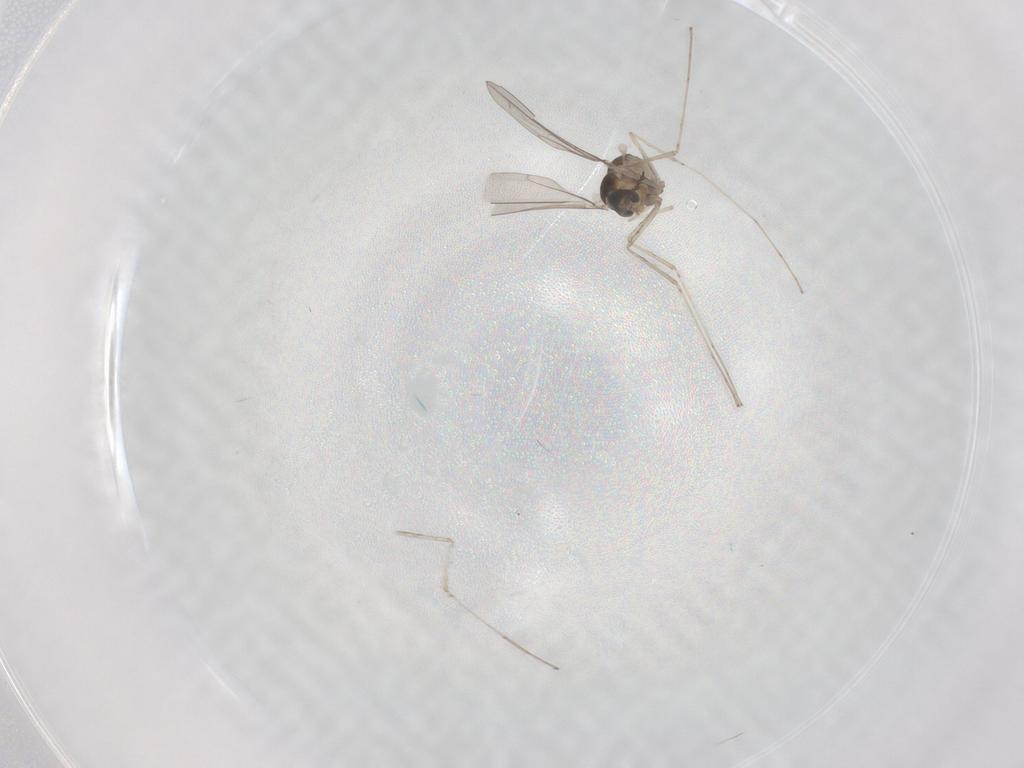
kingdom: Animalia
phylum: Arthropoda
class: Insecta
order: Diptera
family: Cecidomyiidae
